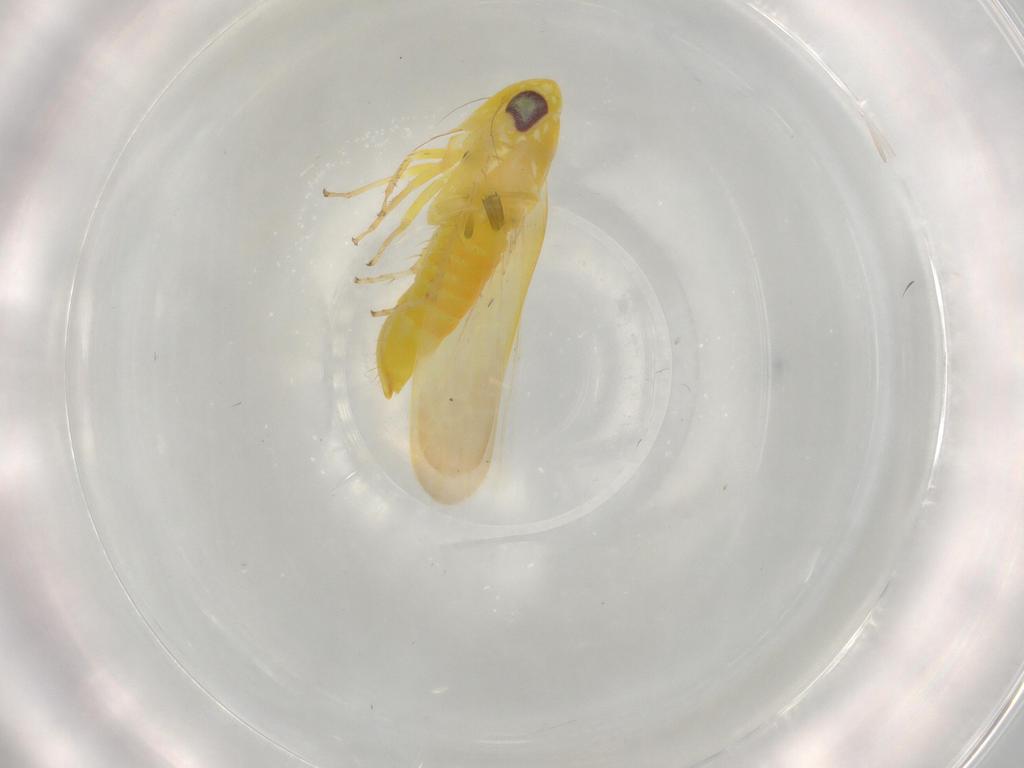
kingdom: Animalia
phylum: Arthropoda
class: Insecta
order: Hemiptera
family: Cicadellidae
